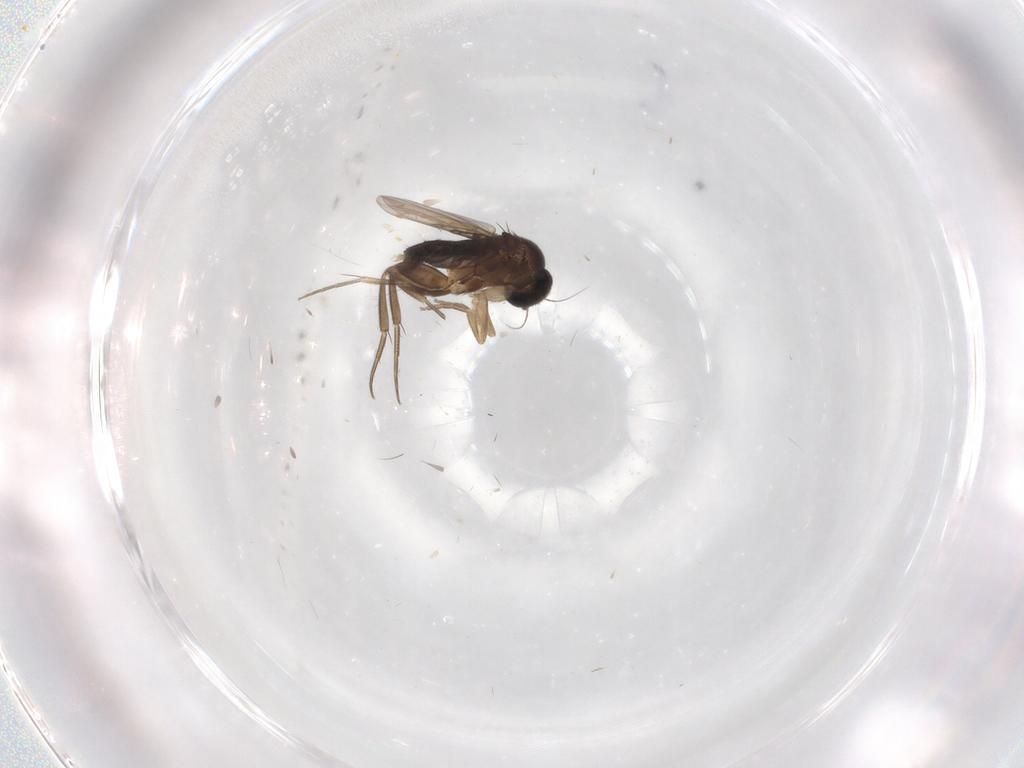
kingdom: Animalia
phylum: Arthropoda
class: Insecta
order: Diptera
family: Phoridae
